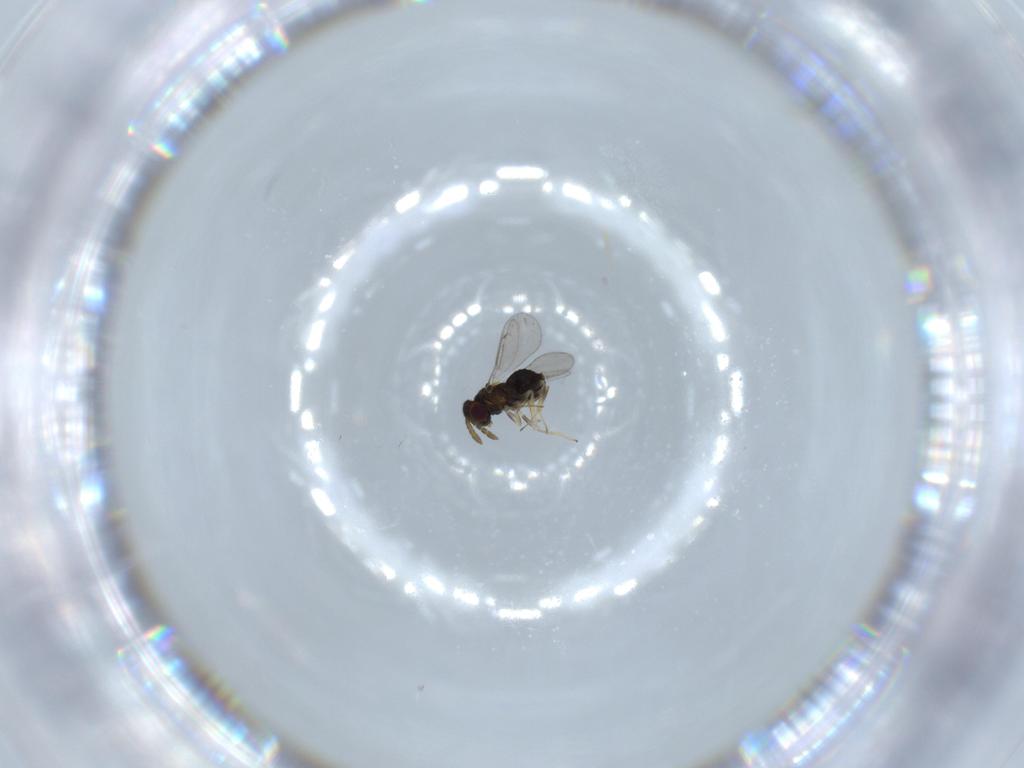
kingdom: Animalia
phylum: Arthropoda
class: Insecta
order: Hymenoptera
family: Aphelinidae
